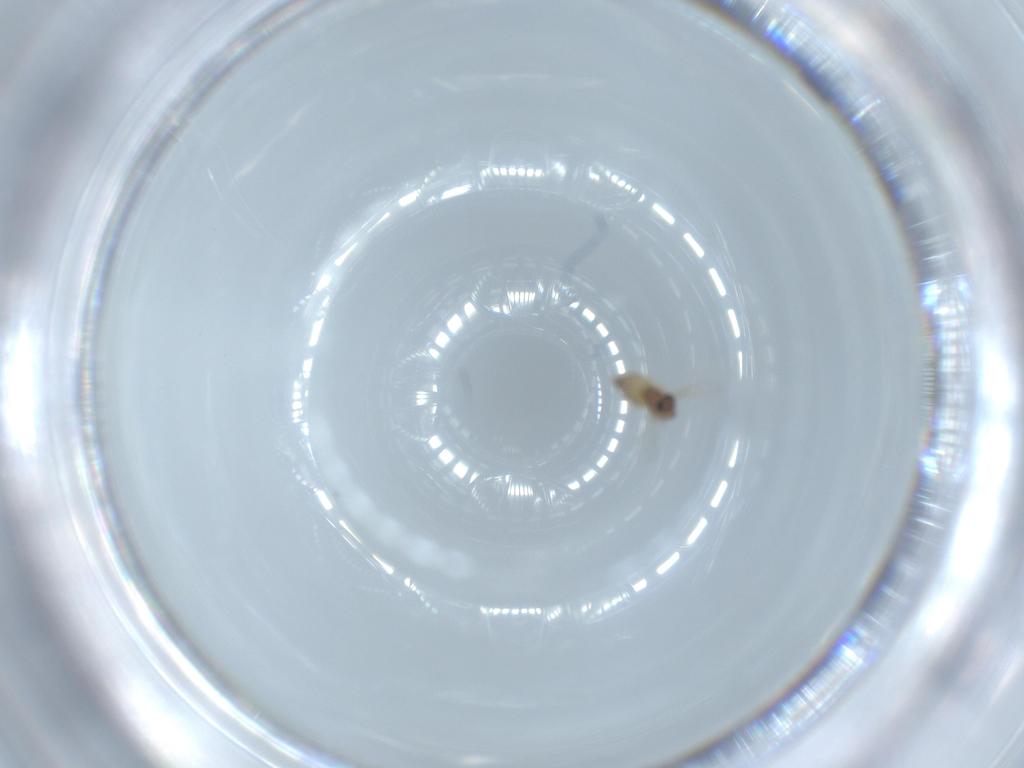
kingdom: Animalia
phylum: Arthropoda
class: Insecta
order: Diptera
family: Chironomidae
